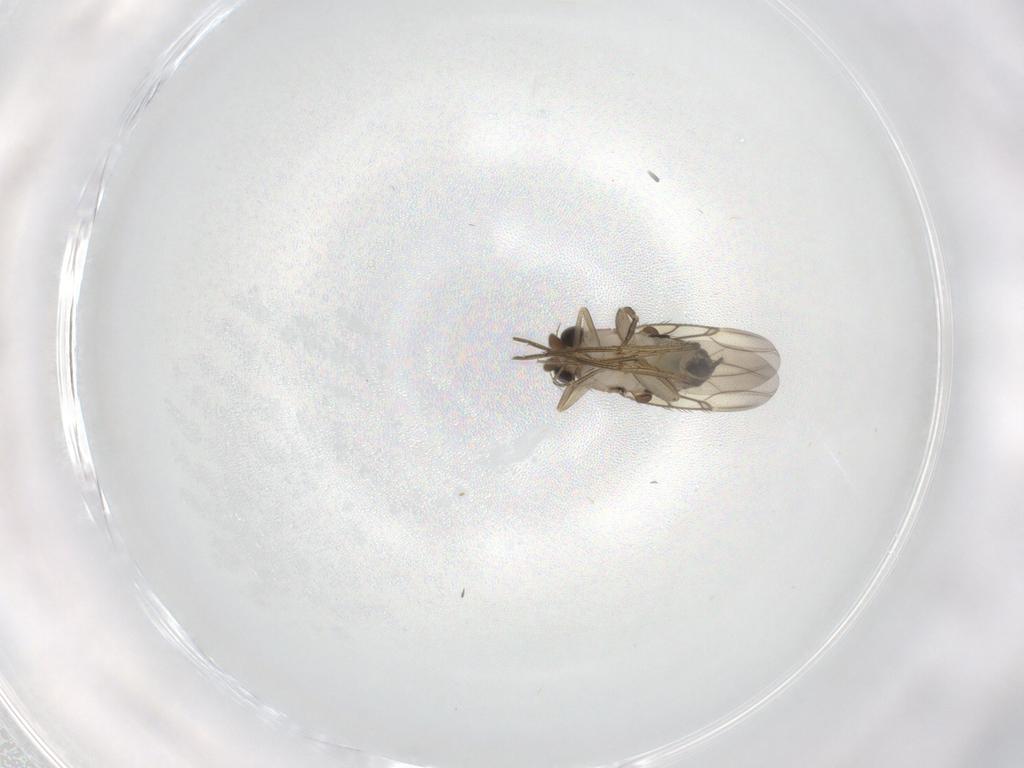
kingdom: Animalia
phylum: Arthropoda
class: Insecta
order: Diptera
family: Phoridae
